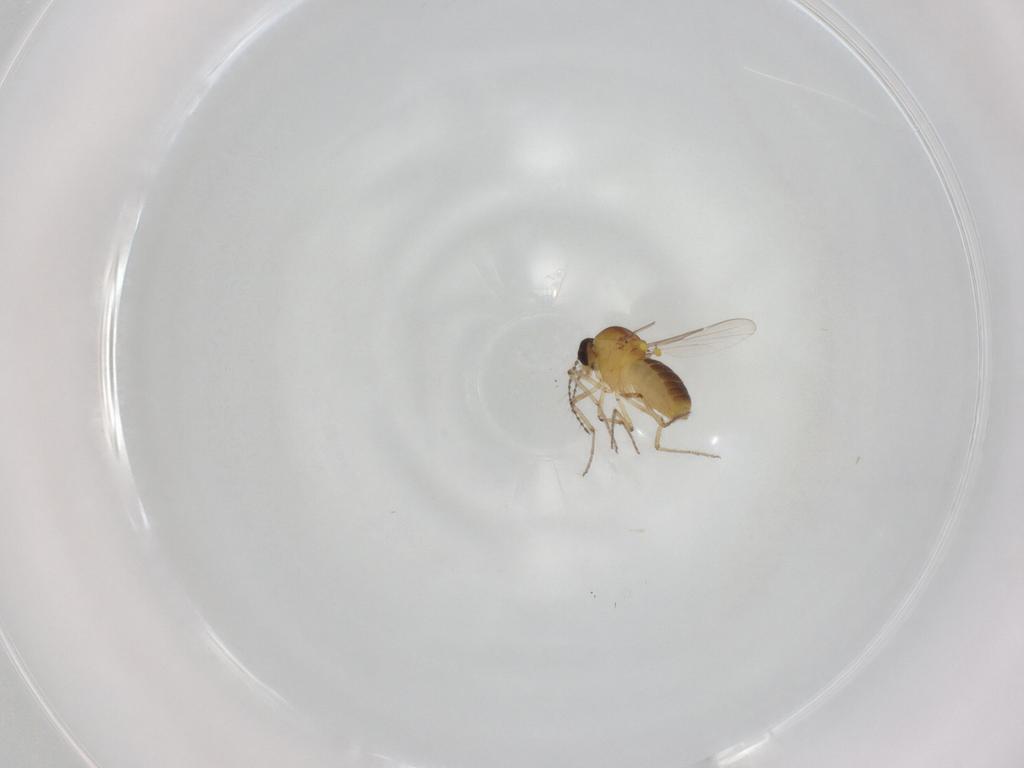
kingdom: Animalia
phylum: Arthropoda
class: Insecta
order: Diptera
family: Ceratopogonidae
